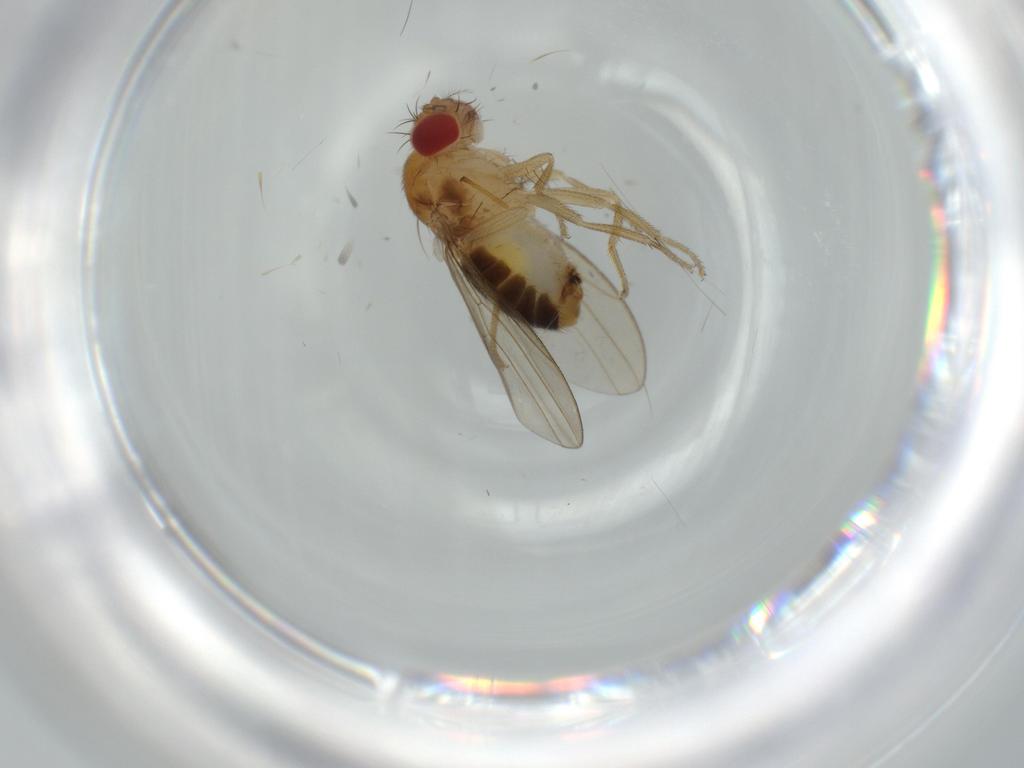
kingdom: Animalia
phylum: Arthropoda
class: Insecta
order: Diptera
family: Drosophilidae
